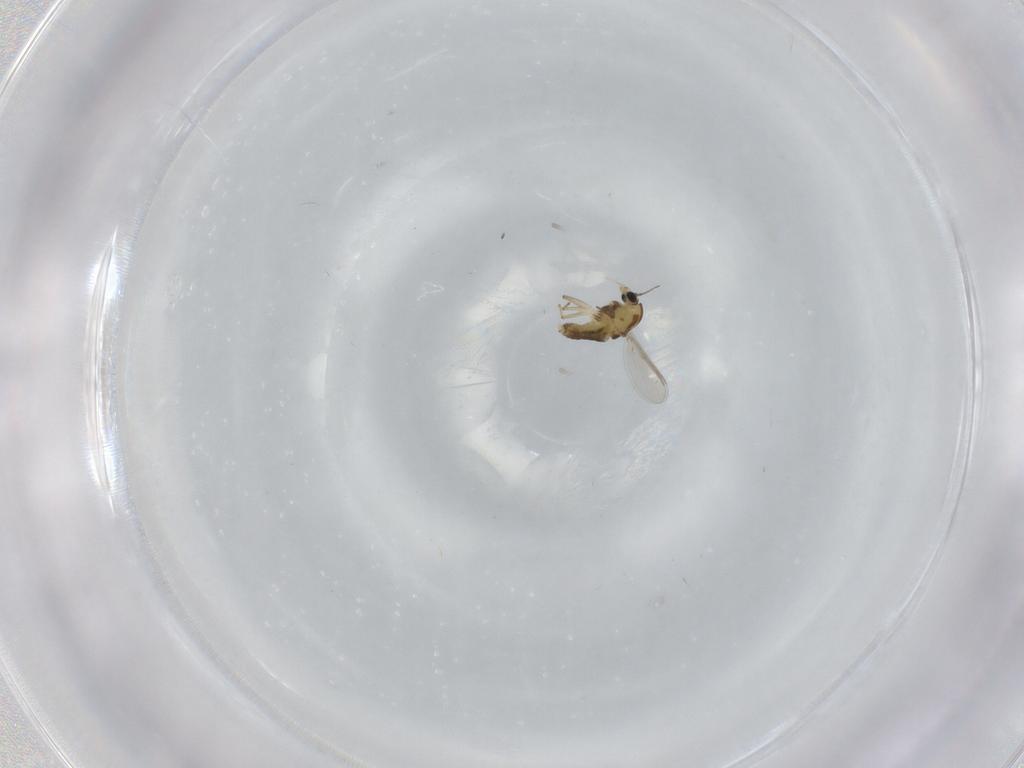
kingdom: Animalia
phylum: Arthropoda
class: Insecta
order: Diptera
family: Chironomidae
